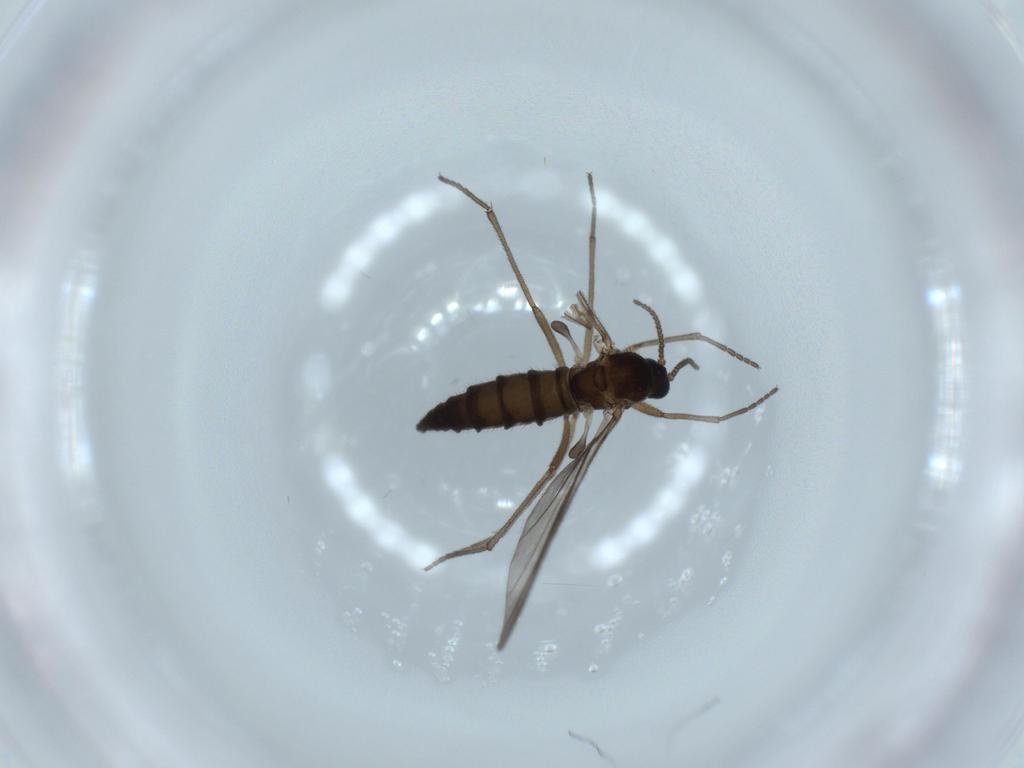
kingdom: Animalia
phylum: Arthropoda
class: Insecta
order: Diptera
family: Sciaridae
